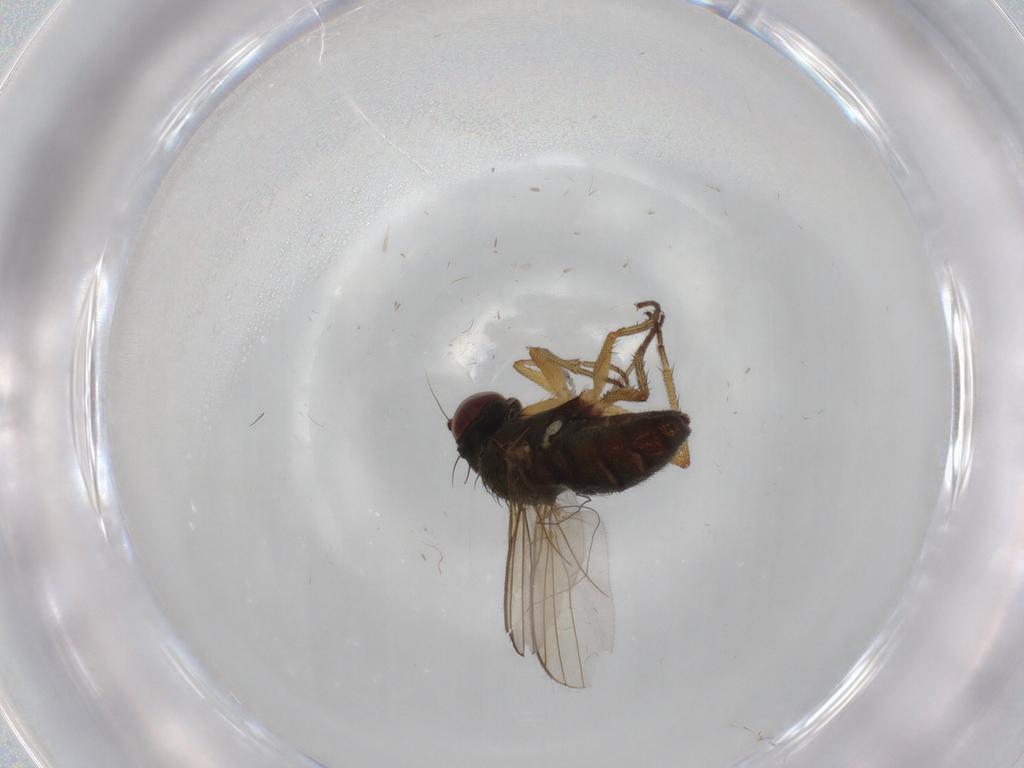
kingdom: Animalia
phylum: Arthropoda
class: Insecta
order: Diptera
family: Dolichopodidae
